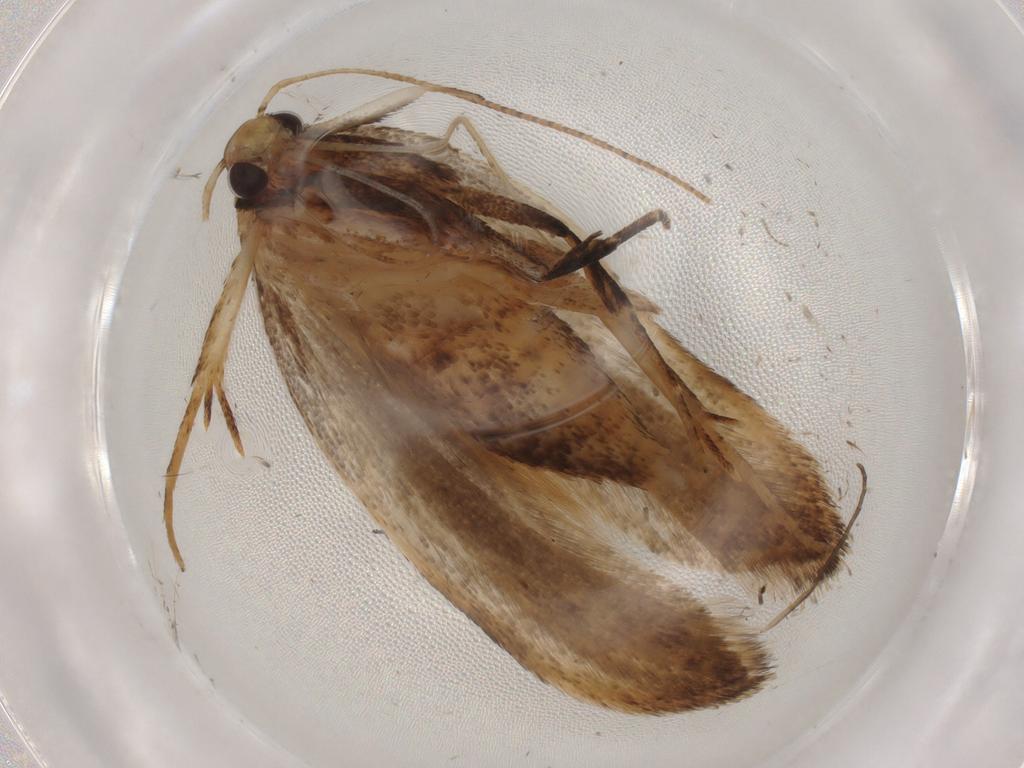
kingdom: Animalia
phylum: Arthropoda
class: Insecta
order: Lepidoptera
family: Gelechiidae
